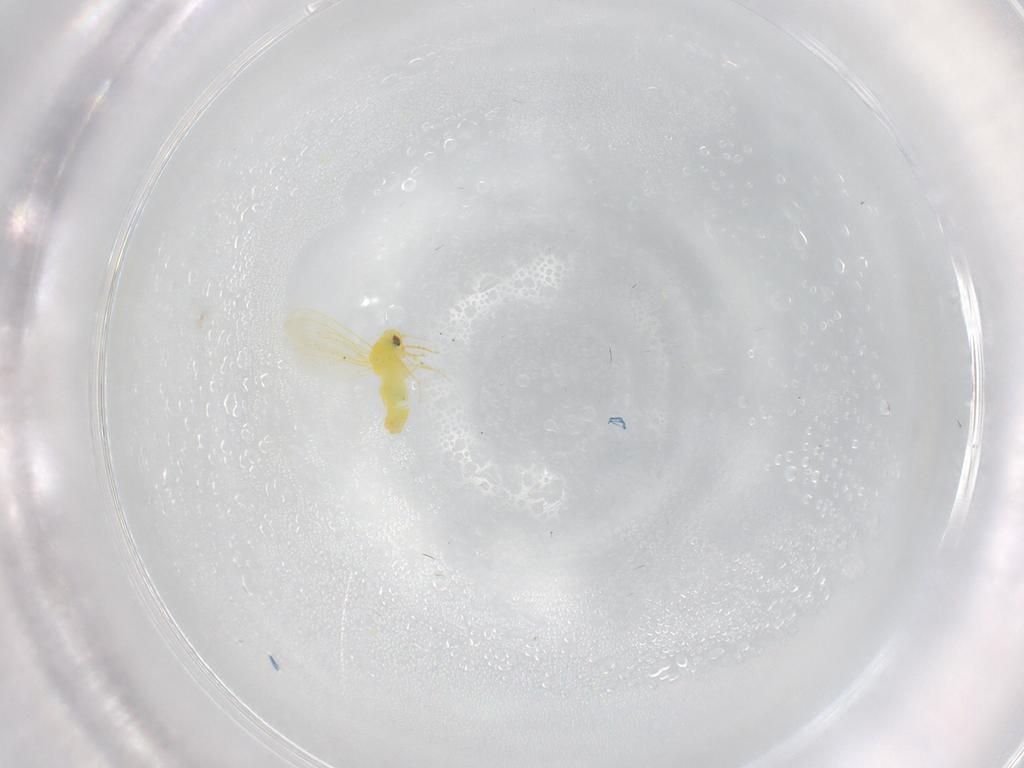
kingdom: Animalia
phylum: Arthropoda
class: Insecta
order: Hemiptera
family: Aleyrodidae
